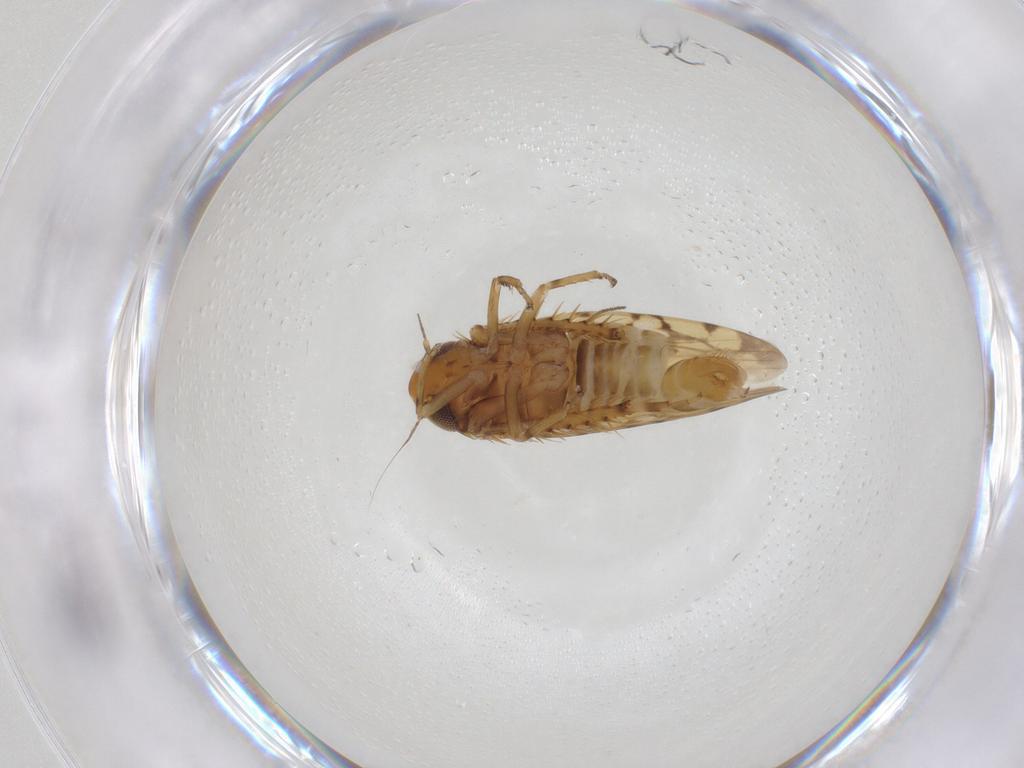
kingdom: Animalia
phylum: Arthropoda
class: Insecta
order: Hemiptera
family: Cicadellidae
